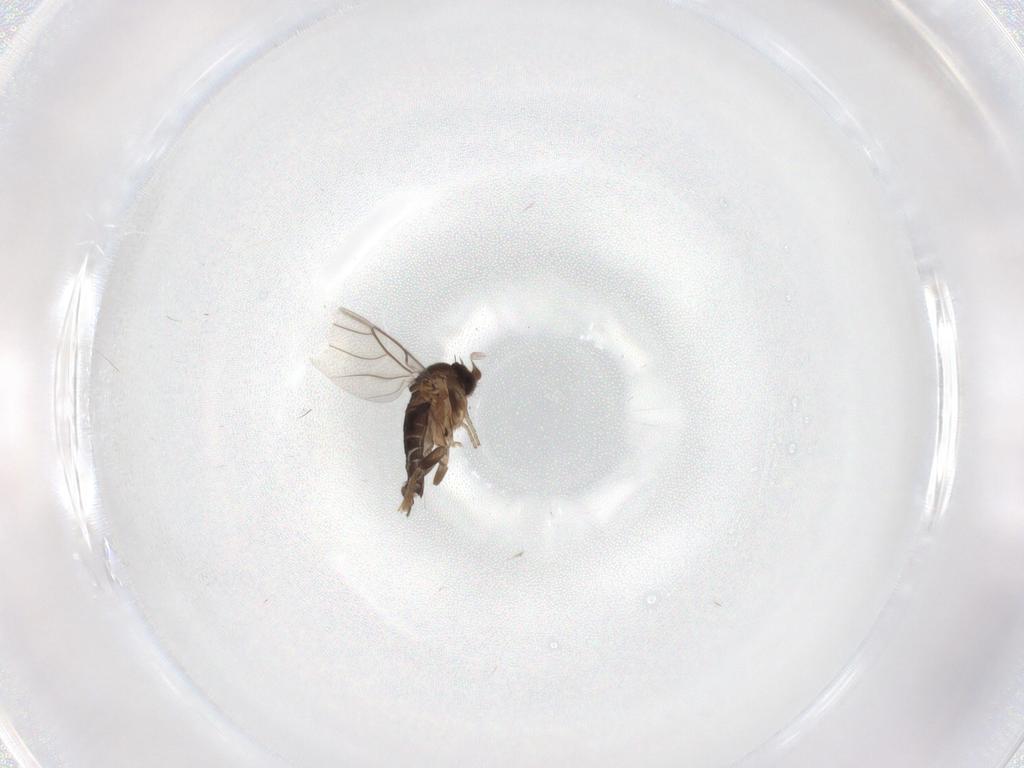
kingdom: Animalia
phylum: Arthropoda
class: Insecta
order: Diptera
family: Phoridae
